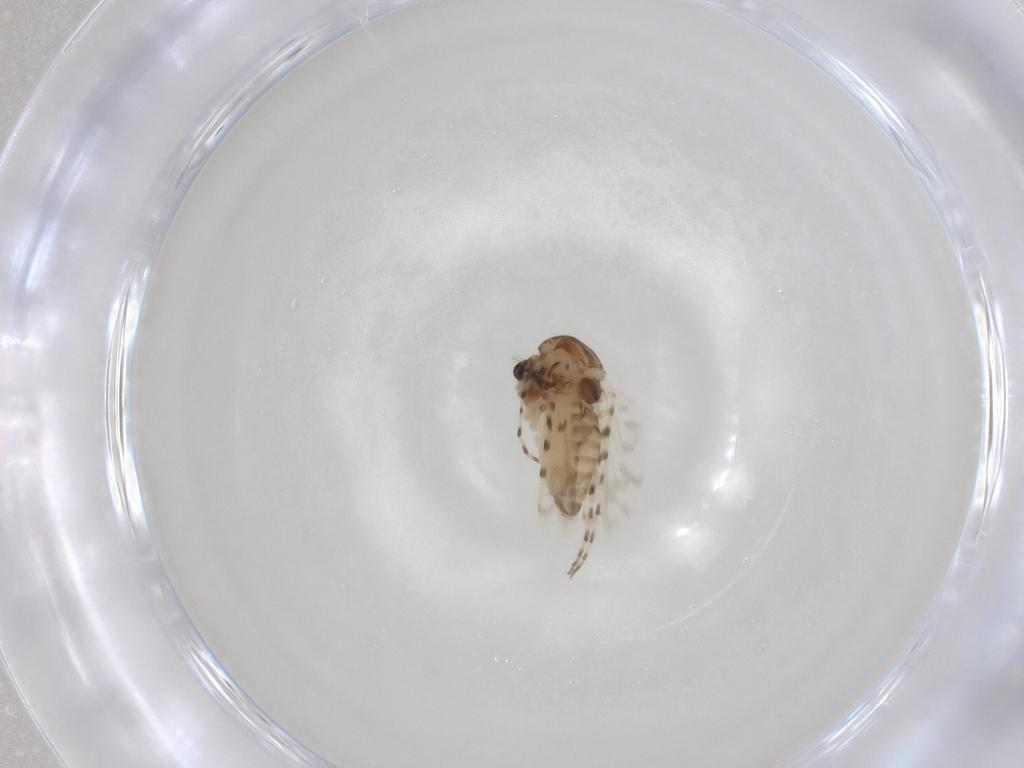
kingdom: Animalia
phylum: Arthropoda
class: Insecta
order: Diptera
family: Chironomidae
